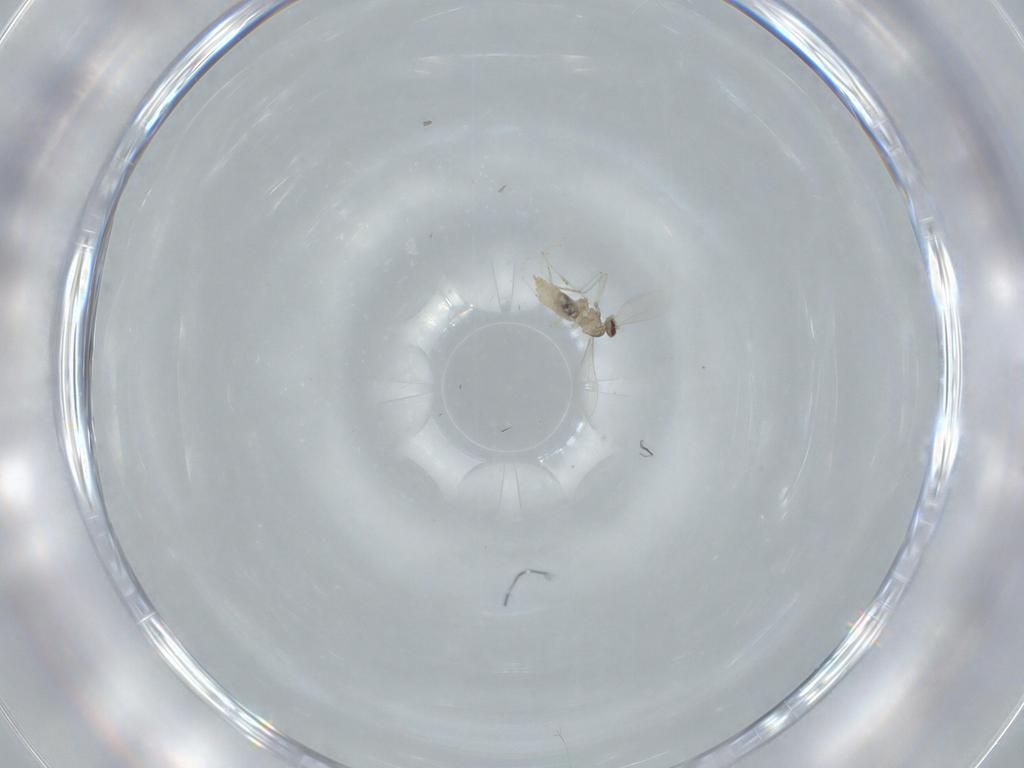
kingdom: Animalia
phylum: Arthropoda
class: Insecta
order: Diptera
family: Cecidomyiidae
